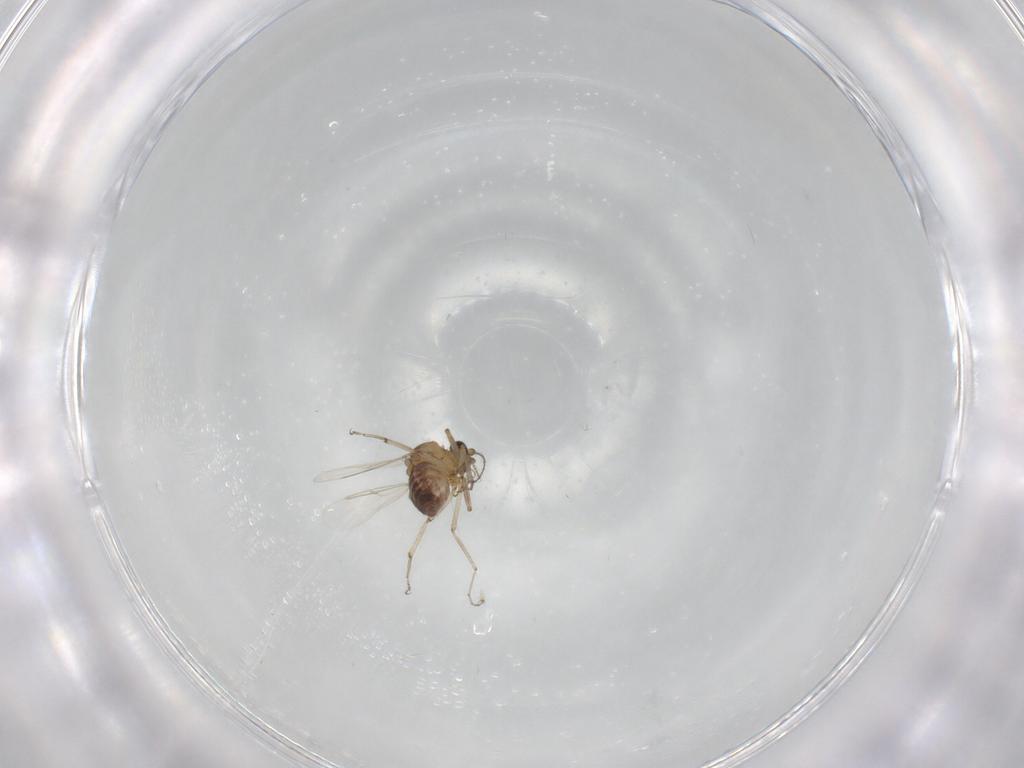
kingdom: Animalia
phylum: Arthropoda
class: Insecta
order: Diptera
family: Ceratopogonidae
